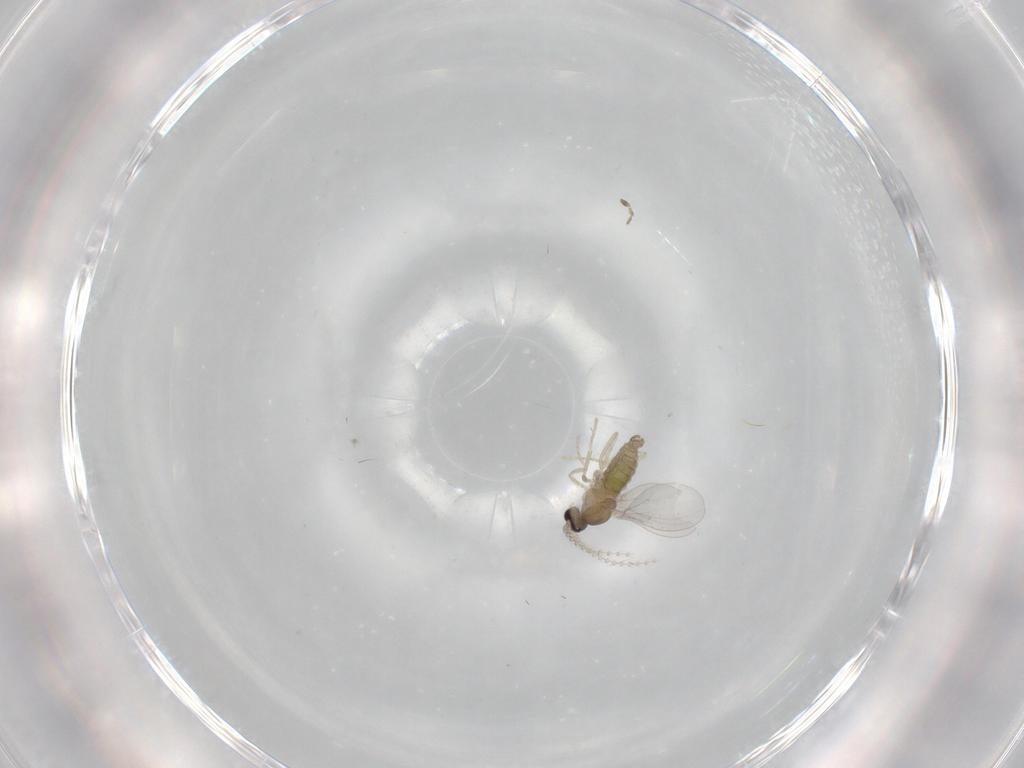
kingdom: Animalia
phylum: Arthropoda
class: Insecta
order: Diptera
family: Cecidomyiidae
